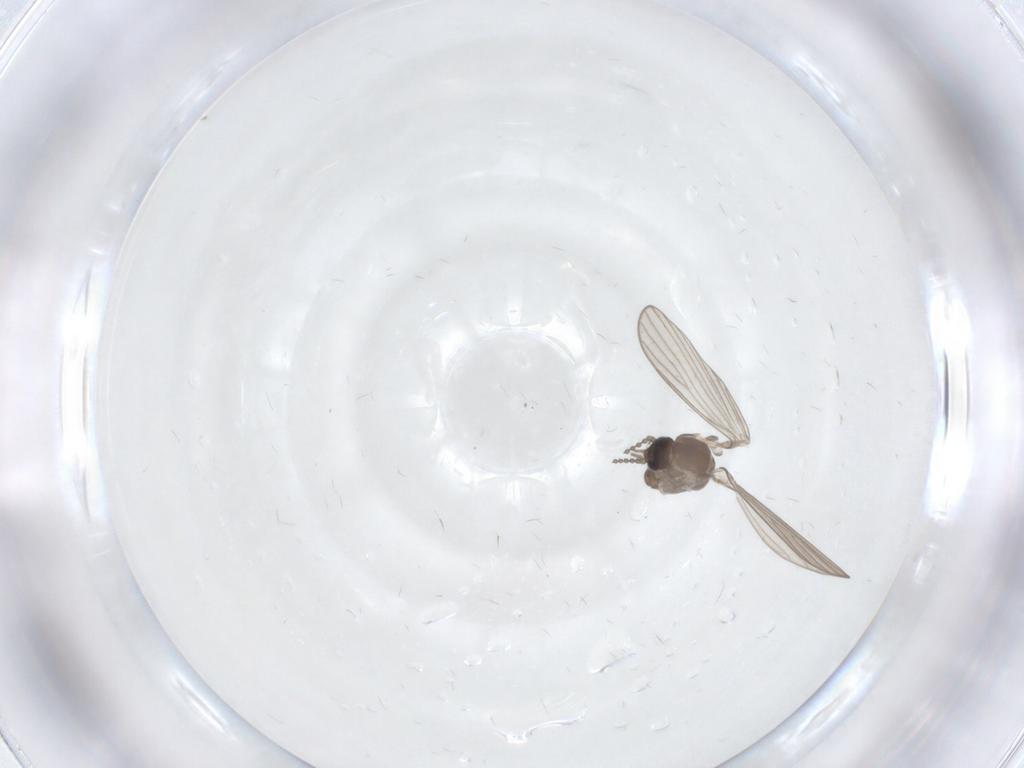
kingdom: Animalia
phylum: Arthropoda
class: Insecta
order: Diptera
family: Psychodidae
